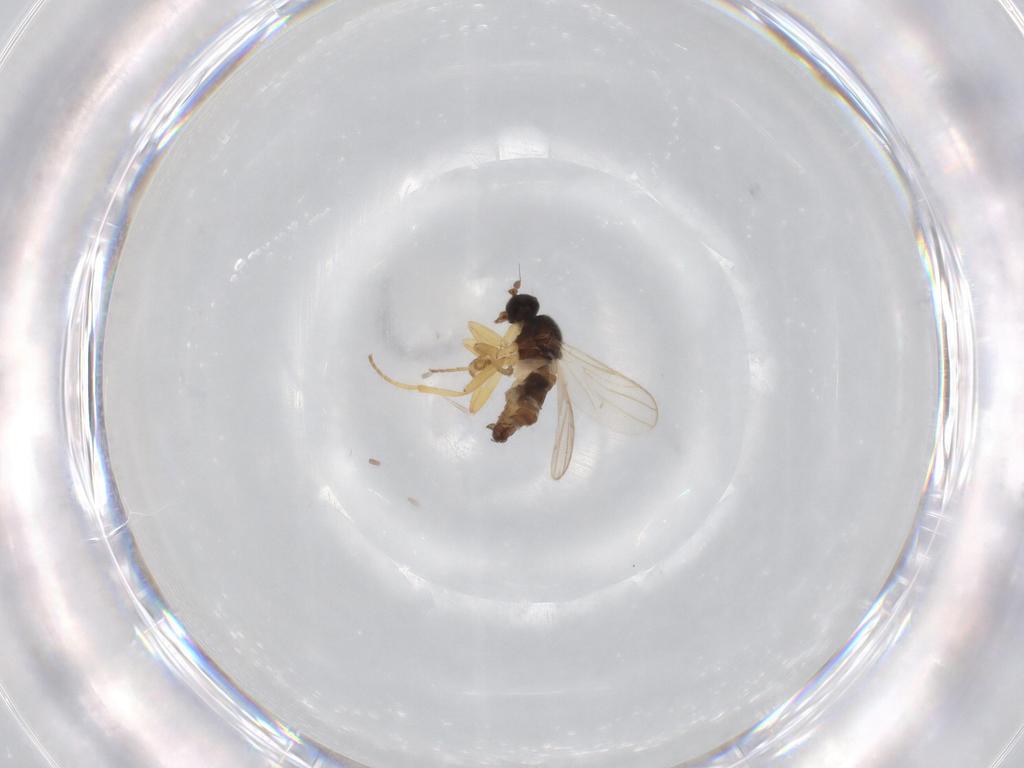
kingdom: Animalia
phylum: Arthropoda
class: Insecta
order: Diptera
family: Hybotidae
